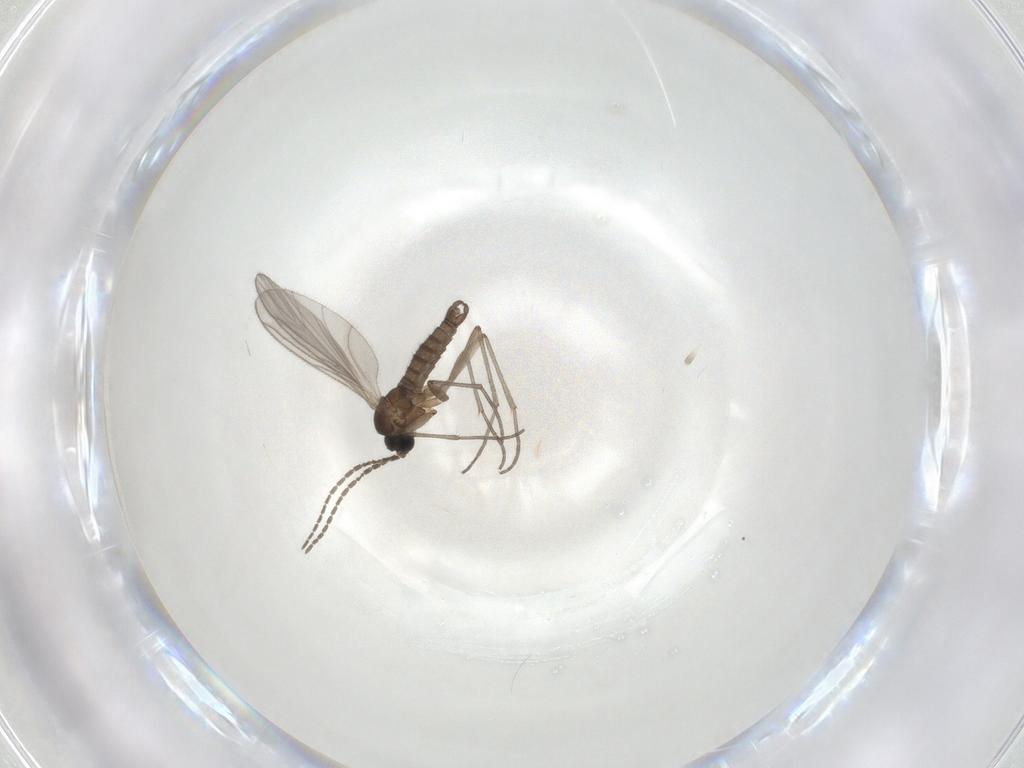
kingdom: Animalia
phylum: Arthropoda
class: Insecta
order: Diptera
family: Sciaridae
